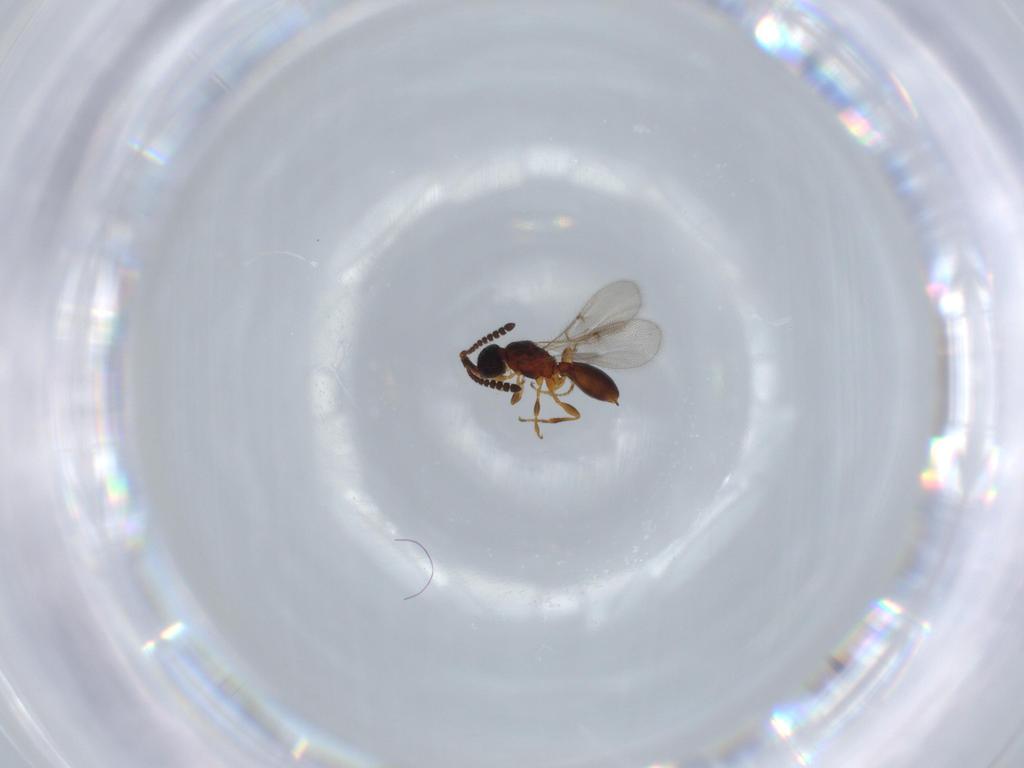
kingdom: Animalia
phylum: Arthropoda
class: Insecta
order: Hymenoptera
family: Diapriidae
